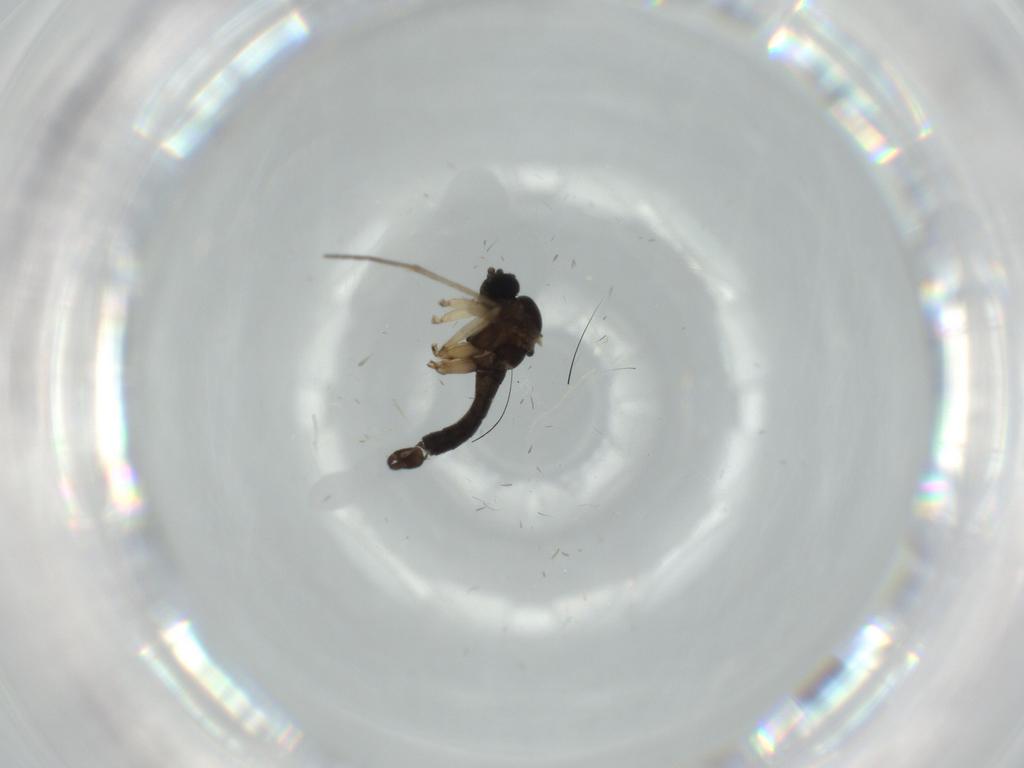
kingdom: Animalia
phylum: Arthropoda
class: Insecta
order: Diptera
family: Sciaridae
